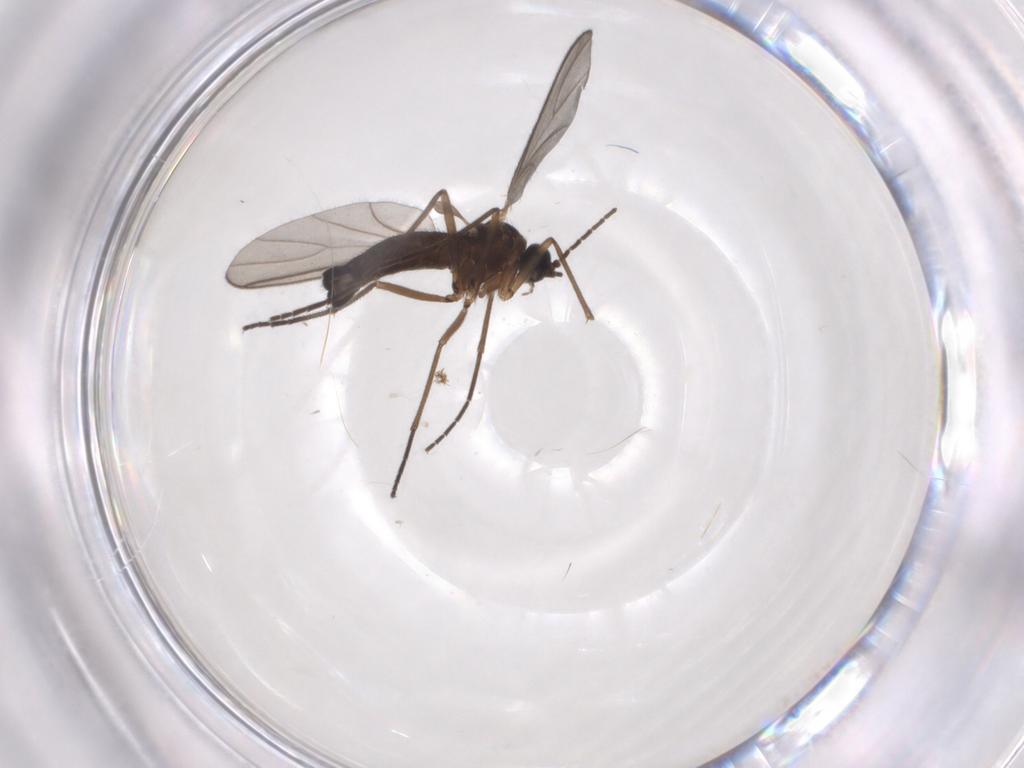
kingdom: Animalia
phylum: Arthropoda
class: Insecta
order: Diptera
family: Sciaridae
